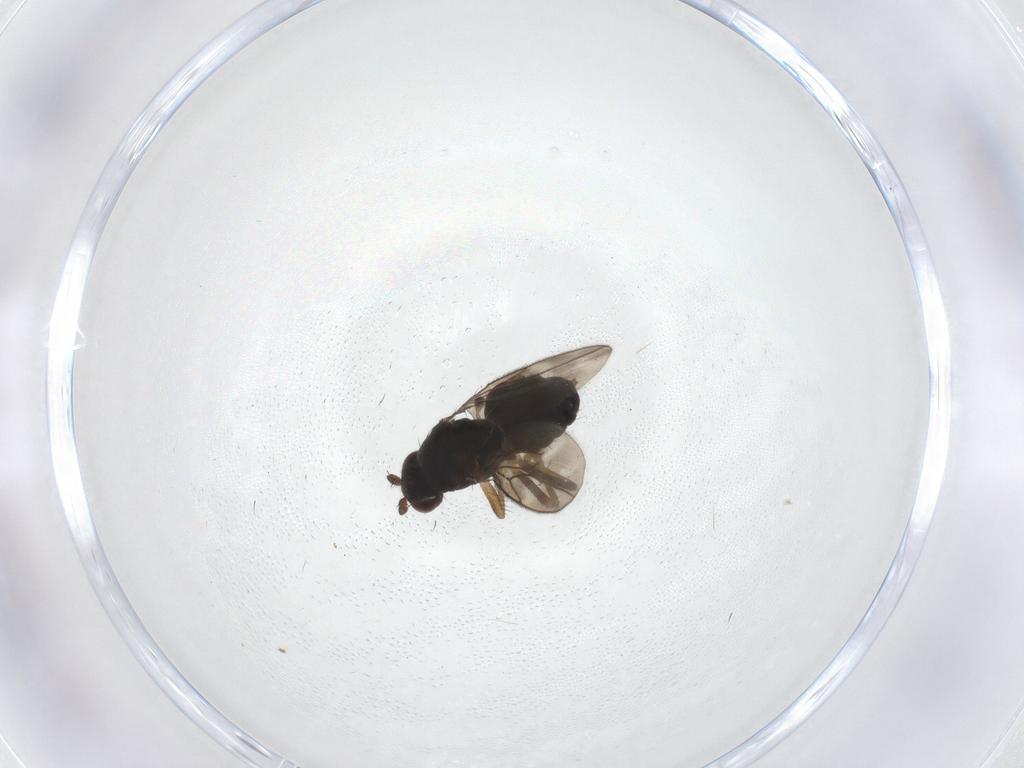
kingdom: Animalia
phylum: Arthropoda
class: Insecta
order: Diptera
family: Sphaeroceridae
